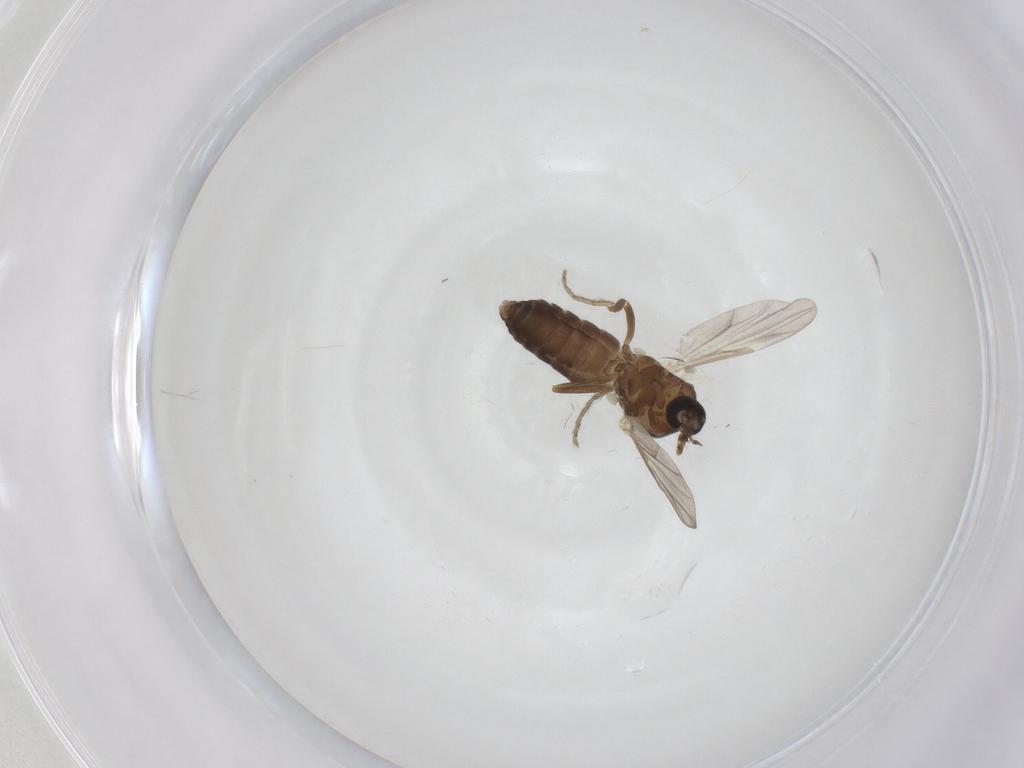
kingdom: Animalia
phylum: Arthropoda
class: Insecta
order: Diptera
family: Ceratopogonidae
